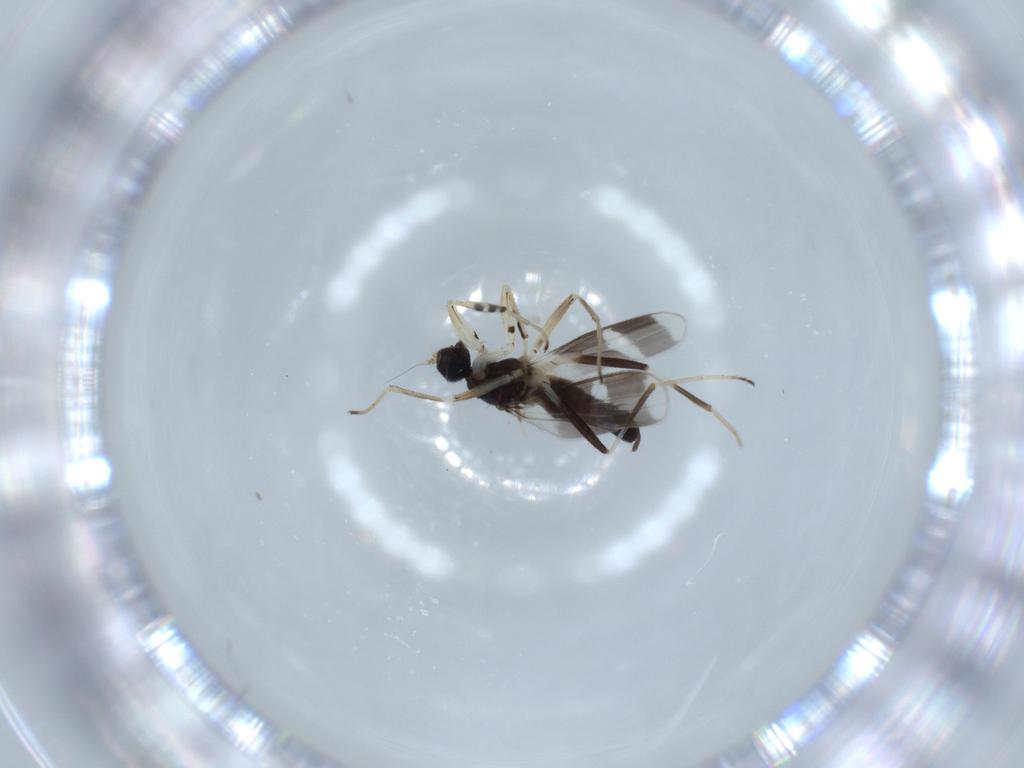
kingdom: Animalia
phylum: Arthropoda
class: Insecta
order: Diptera
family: Hybotidae
